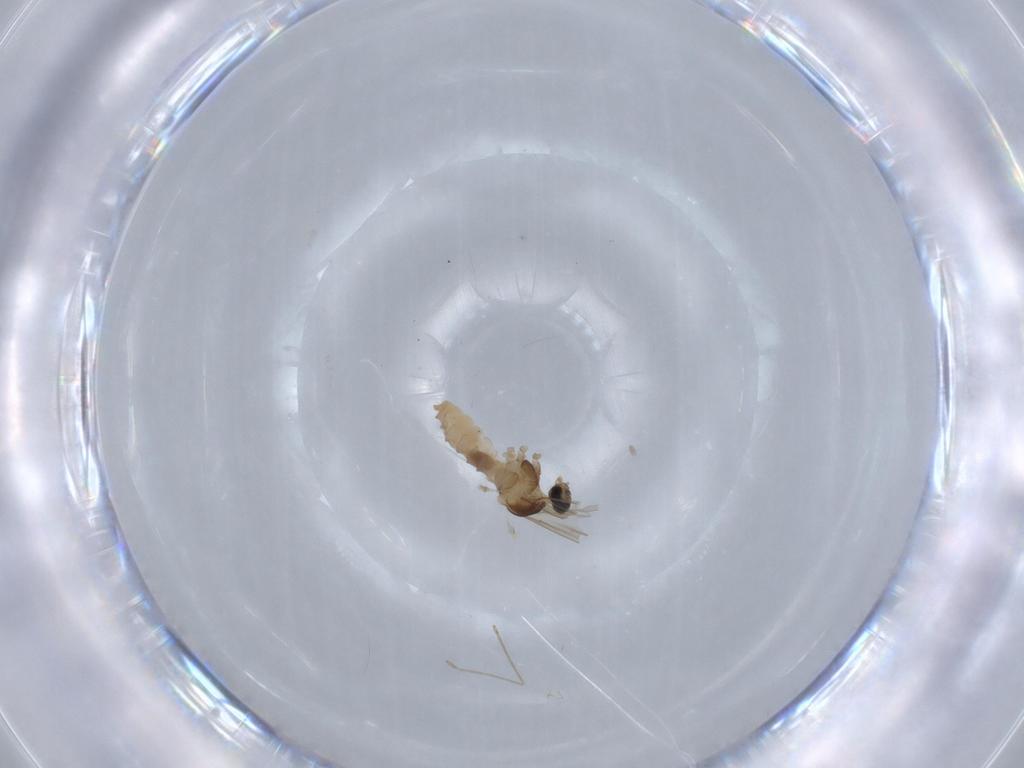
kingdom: Animalia
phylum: Arthropoda
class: Insecta
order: Diptera
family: Cecidomyiidae
